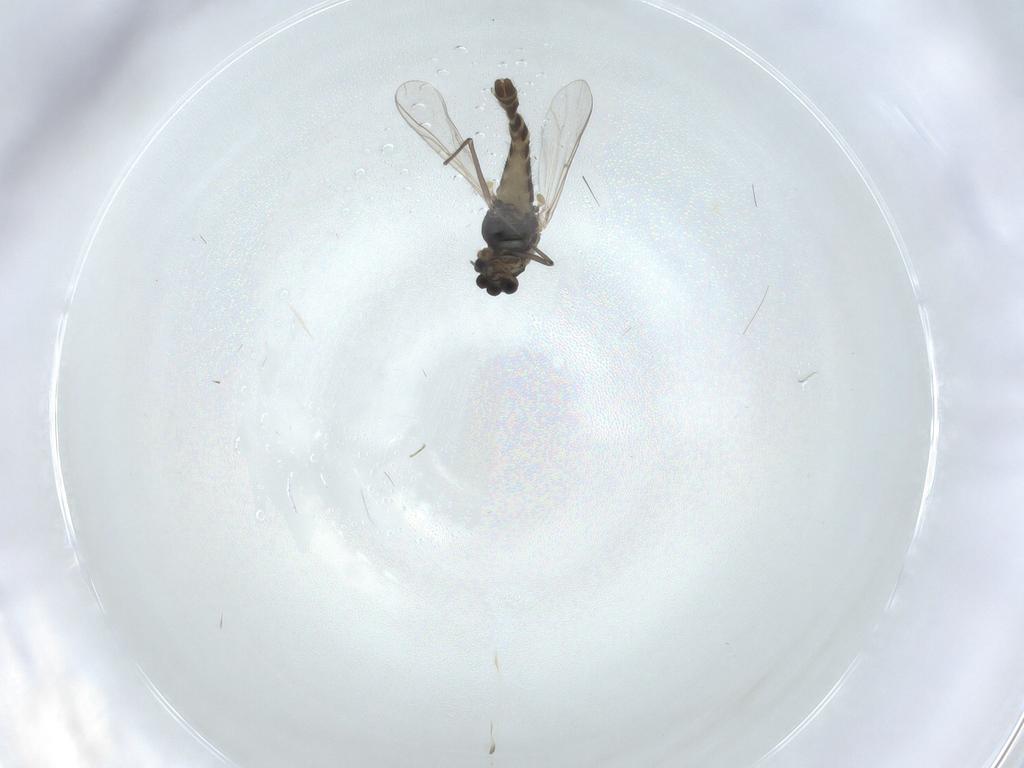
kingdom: Animalia
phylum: Arthropoda
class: Insecta
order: Diptera
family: Chironomidae
